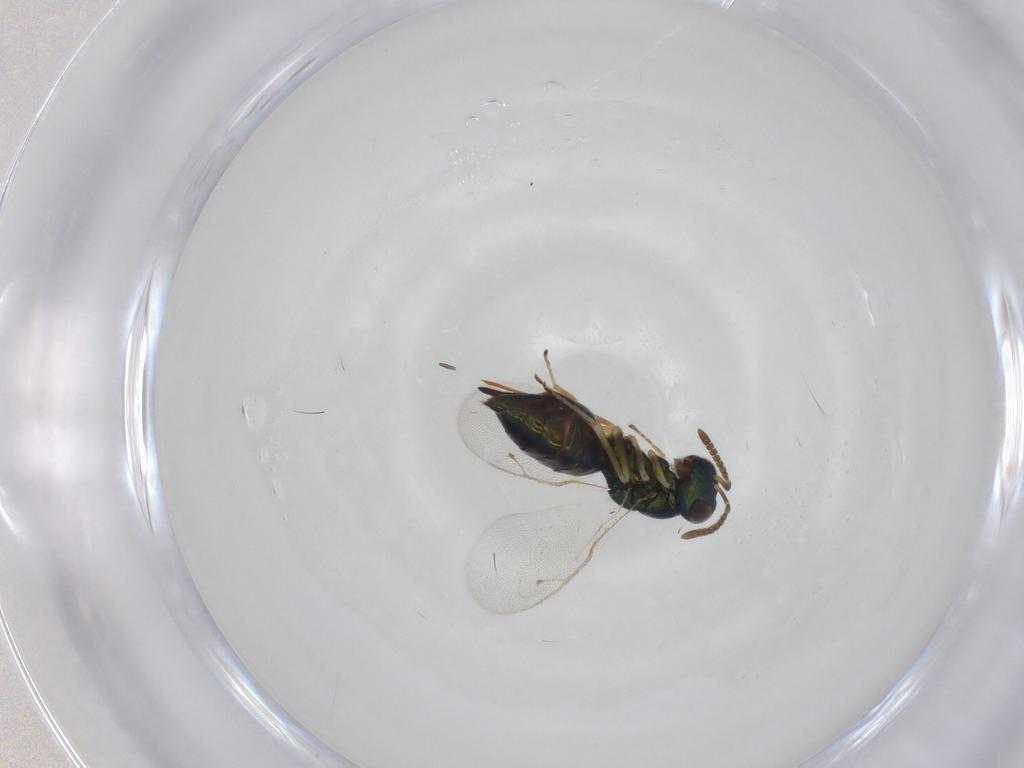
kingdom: Animalia
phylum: Arthropoda
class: Insecta
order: Hymenoptera
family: Pteromalidae
